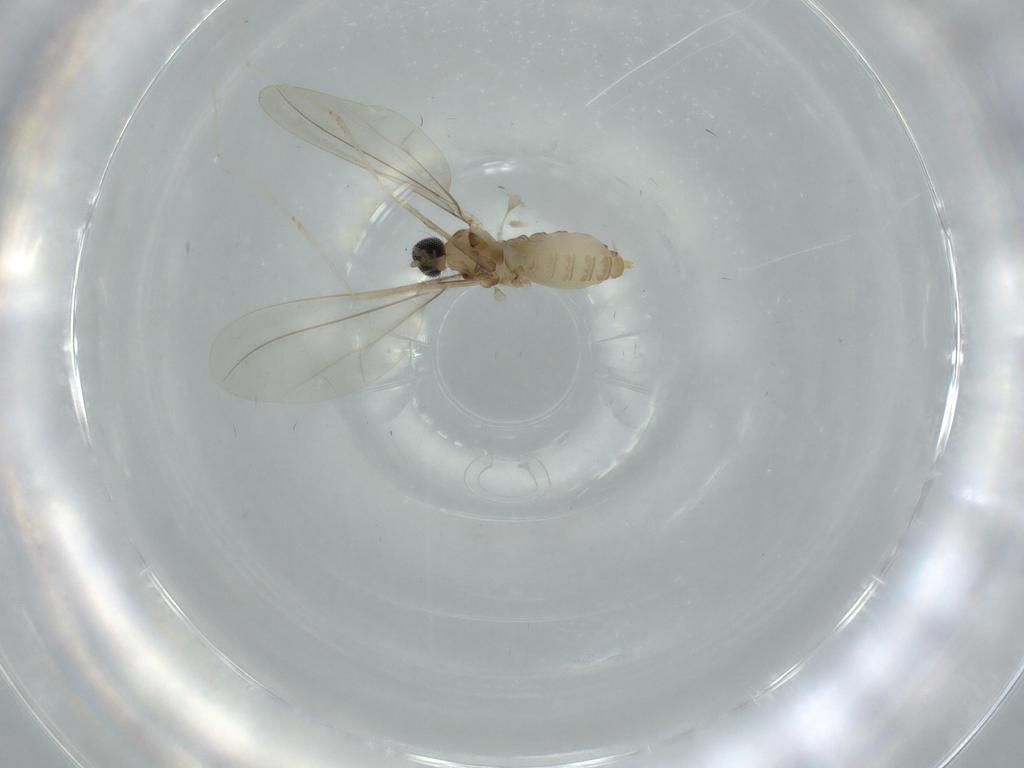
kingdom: Animalia
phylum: Arthropoda
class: Insecta
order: Diptera
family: Cecidomyiidae
